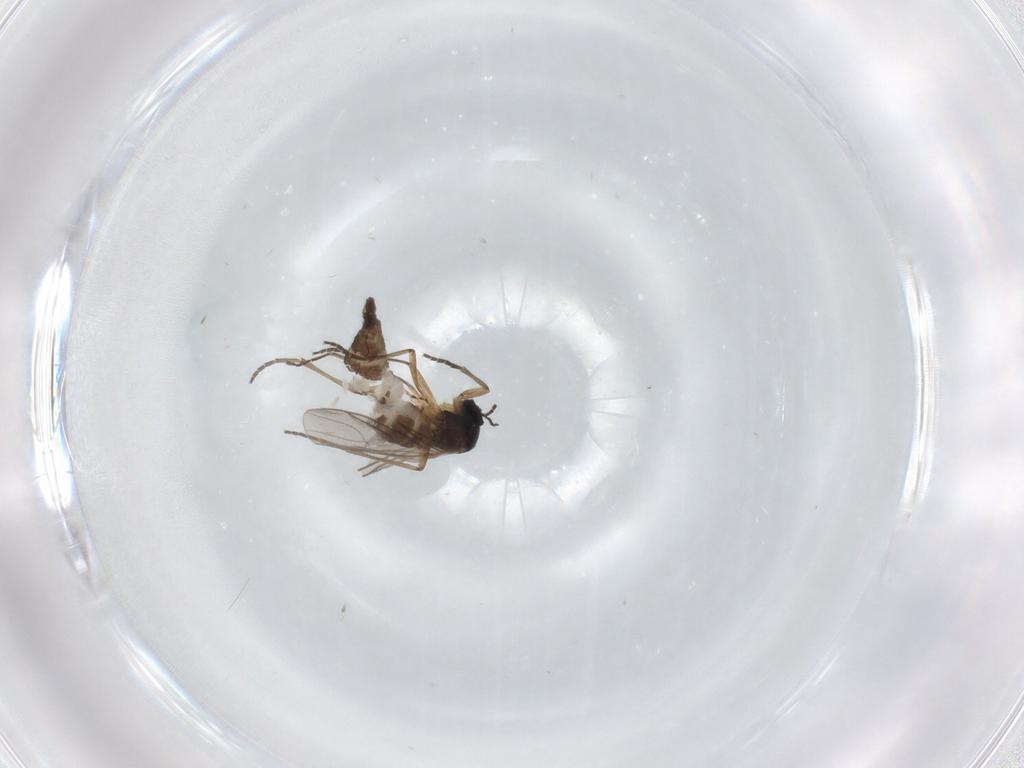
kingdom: Animalia
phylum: Arthropoda
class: Insecta
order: Diptera
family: Sciaridae
